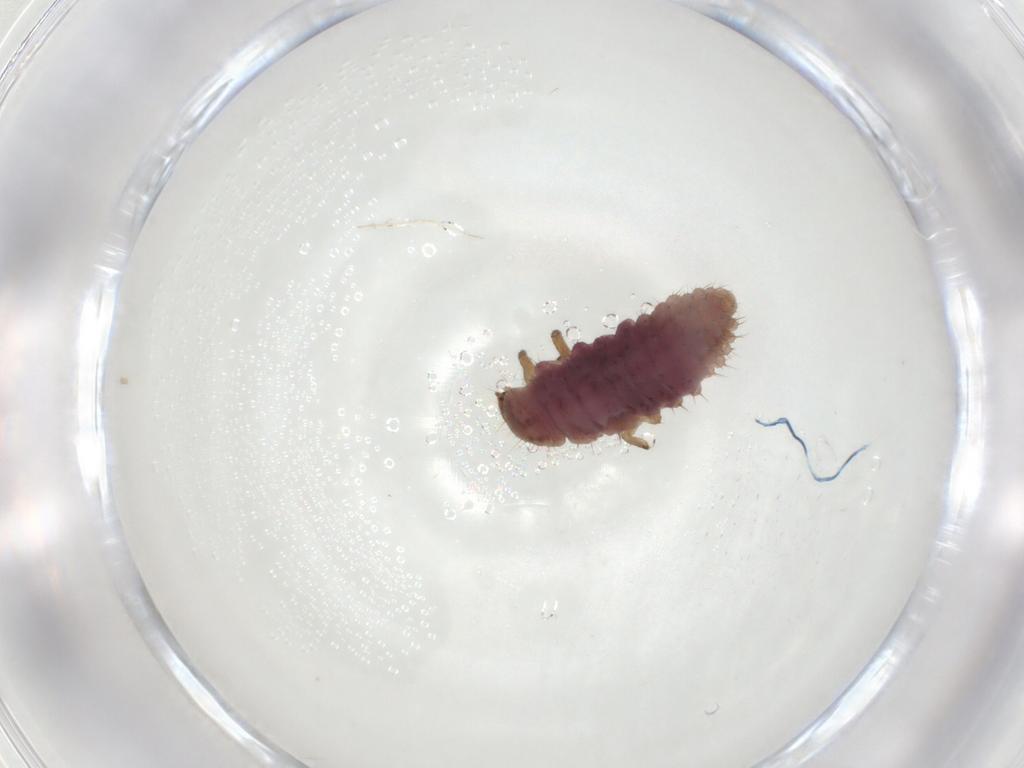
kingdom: Animalia
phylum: Arthropoda
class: Insecta
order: Coleoptera
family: Coccinellidae
